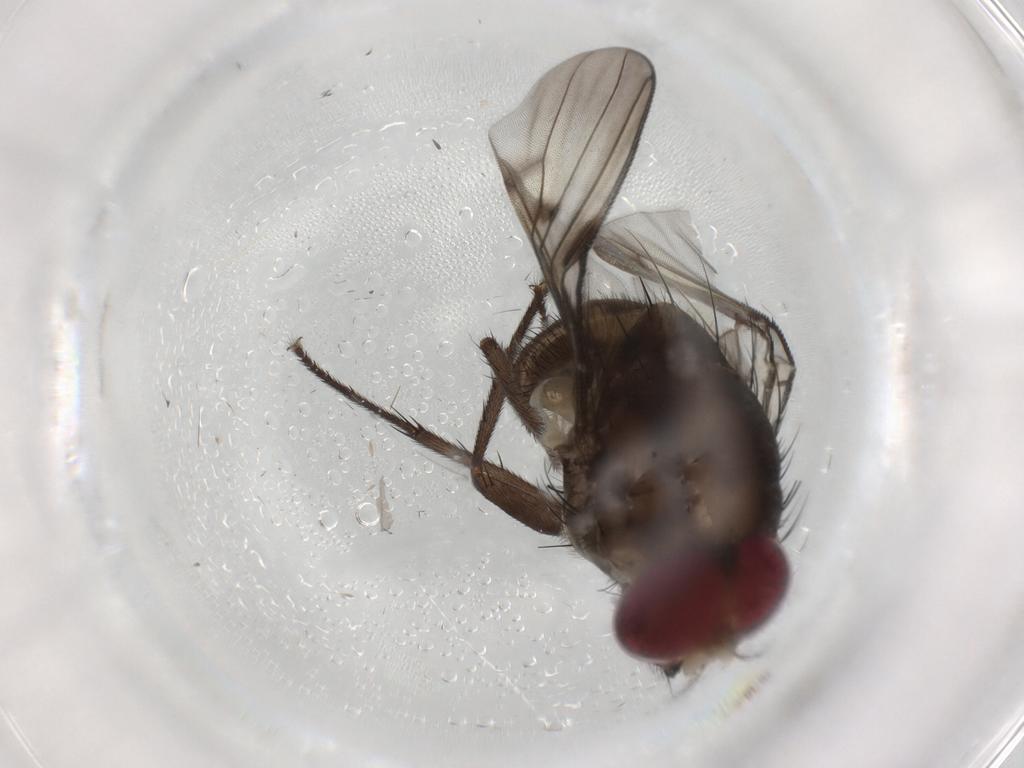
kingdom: Animalia
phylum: Arthropoda
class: Insecta
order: Diptera
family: Muscidae
